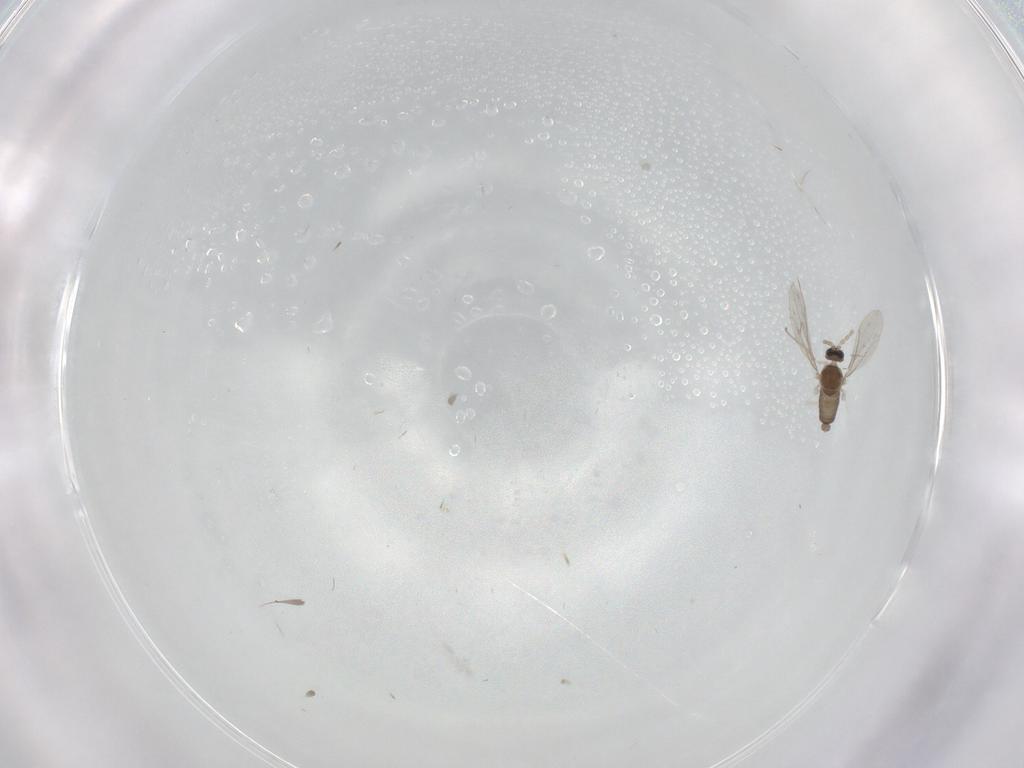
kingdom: Animalia
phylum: Arthropoda
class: Insecta
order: Diptera
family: Cecidomyiidae
